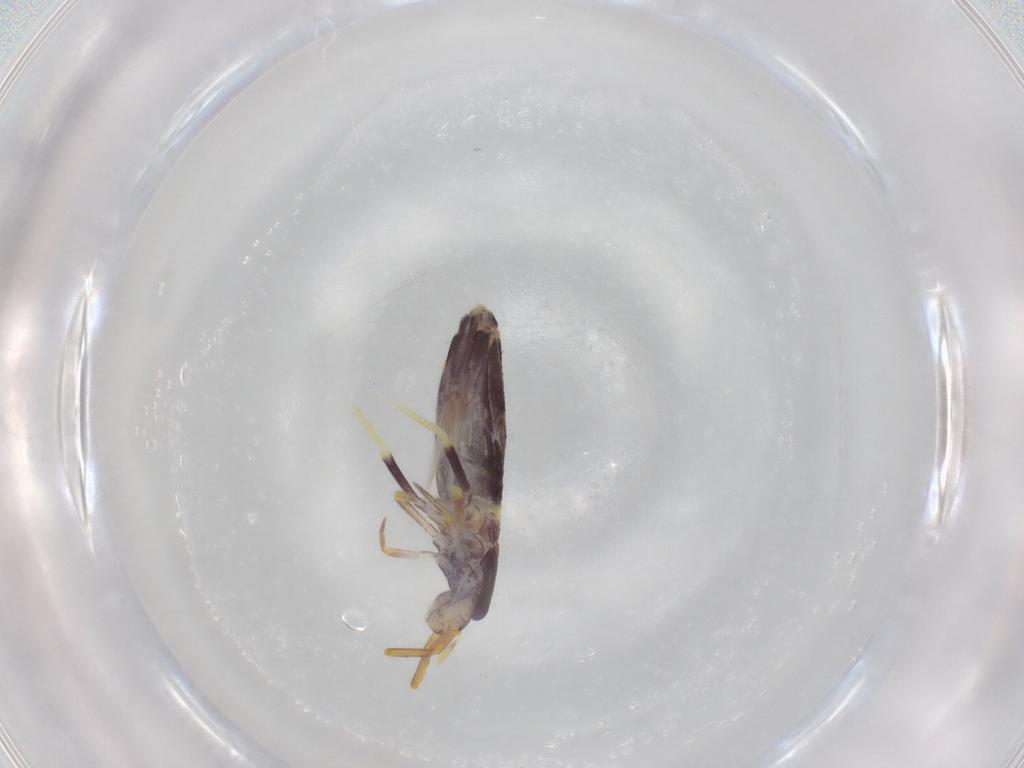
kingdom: Animalia
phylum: Arthropoda
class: Collembola
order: Entomobryomorpha
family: Entomobryidae
